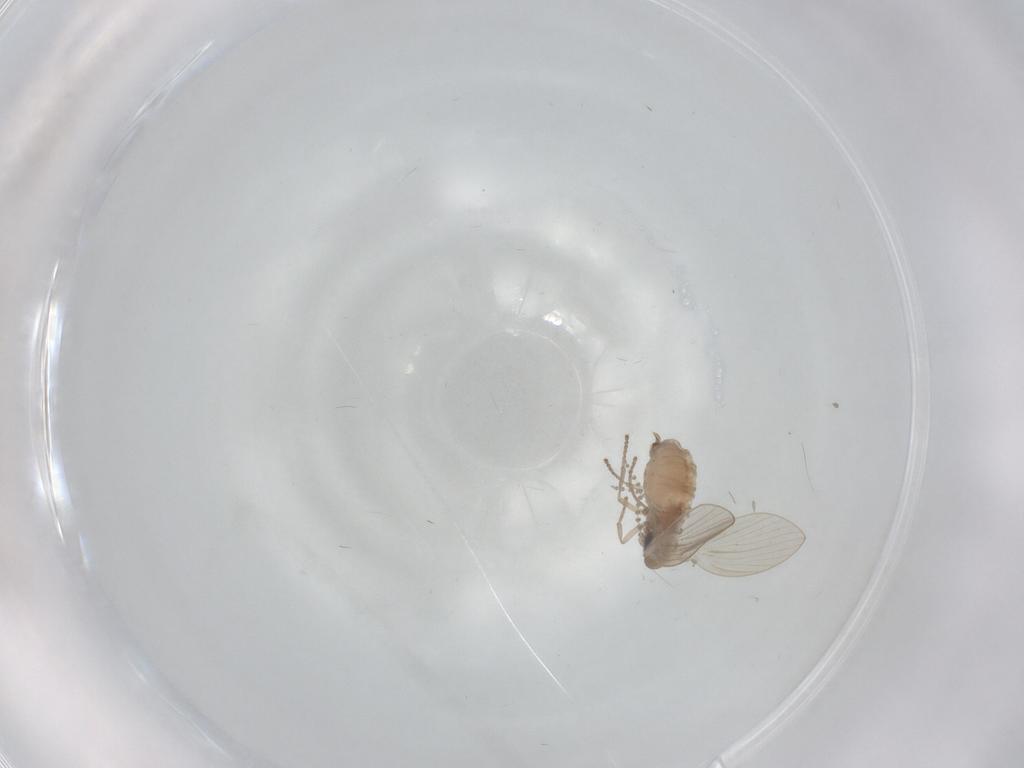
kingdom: Animalia
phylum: Arthropoda
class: Insecta
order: Diptera
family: Psychodidae
